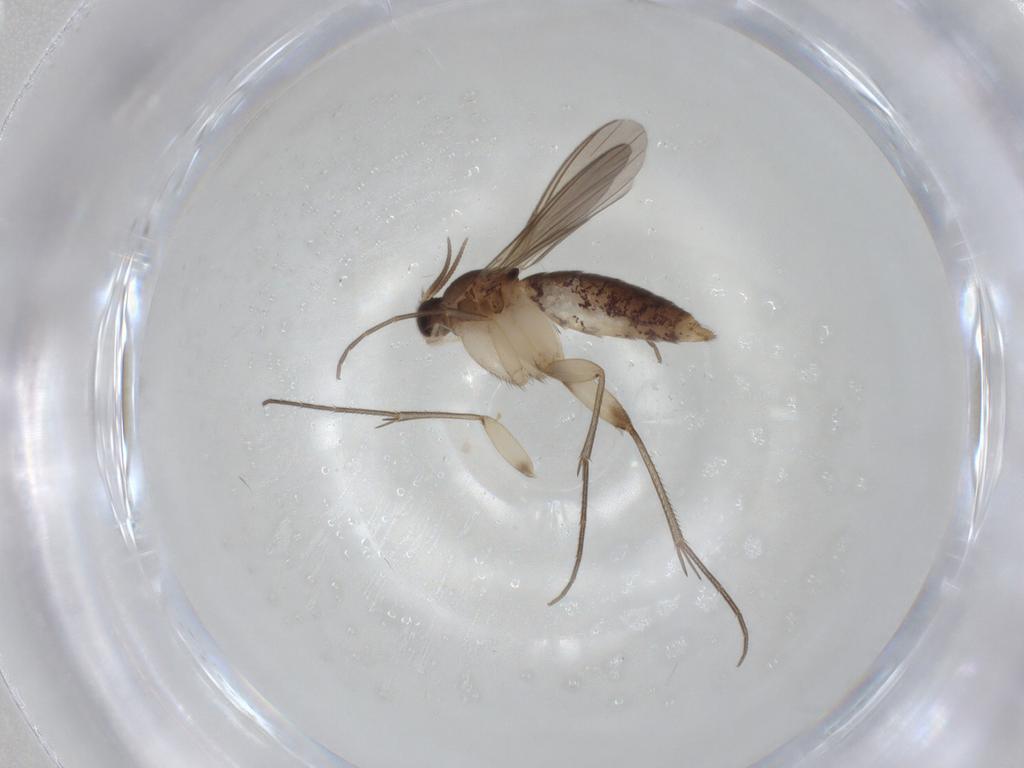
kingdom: Animalia
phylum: Arthropoda
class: Insecta
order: Diptera
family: Mycetophilidae
